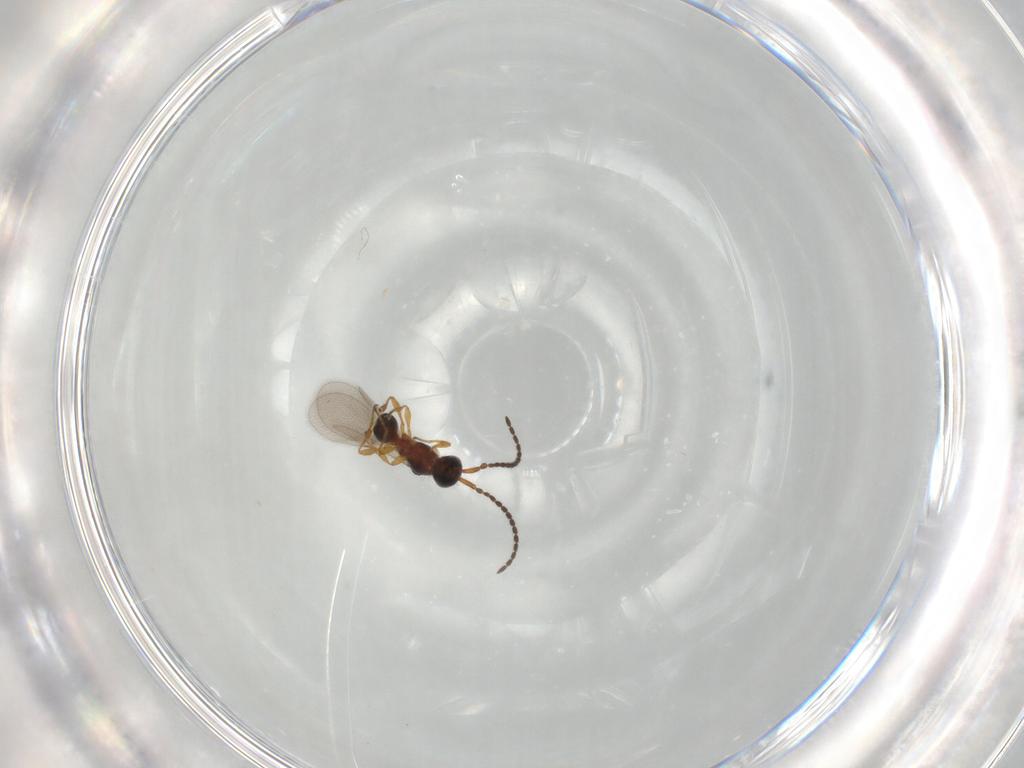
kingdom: Animalia
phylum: Arthropoda
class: Insecta
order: Hymenoptera
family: Diapriidae
